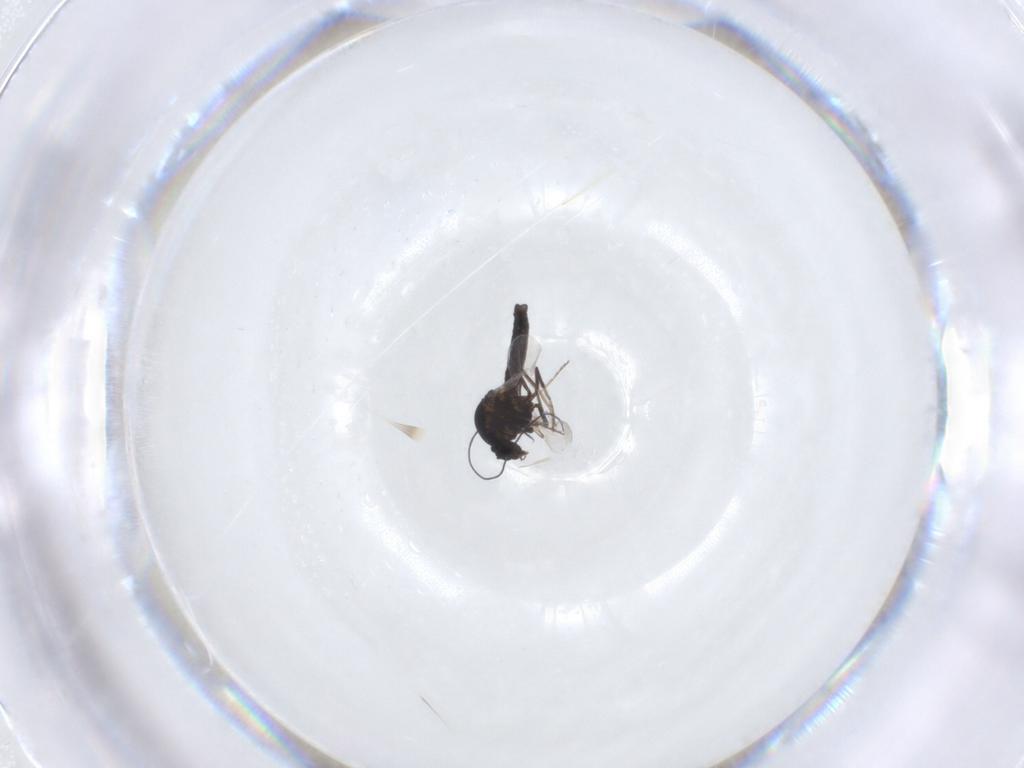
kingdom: Animalia
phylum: Arthropoda
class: Insecta
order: Diptera
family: Ceratopogonidae
